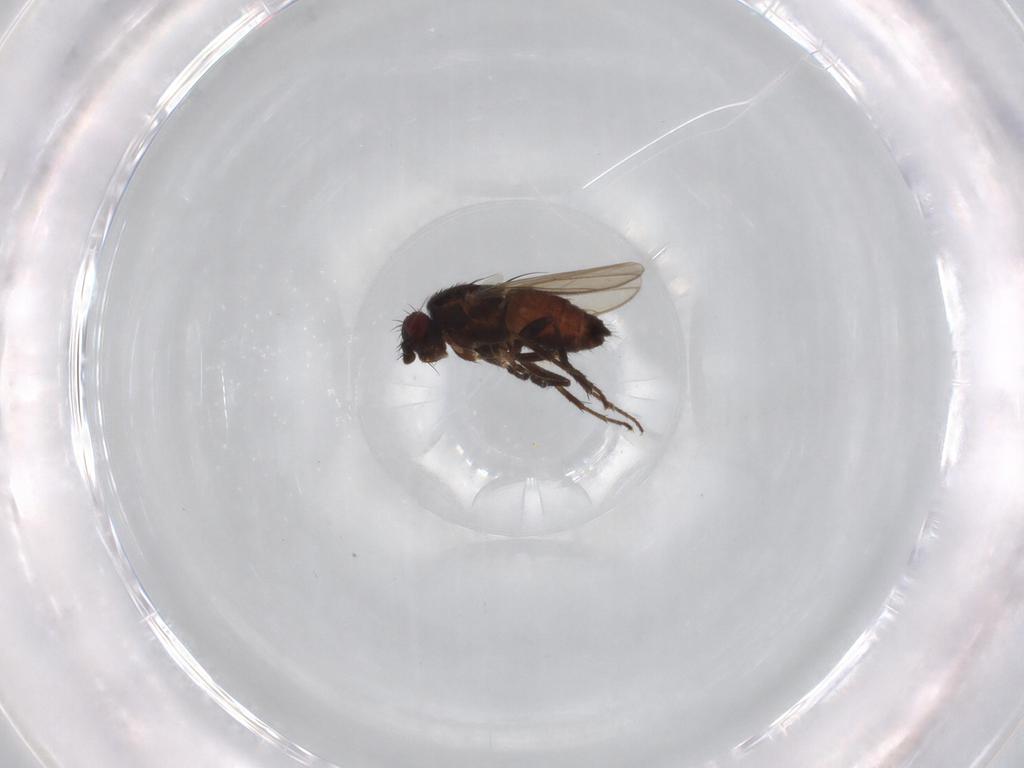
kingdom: Animalia
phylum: Arthropoda
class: Insecta
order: Diptera
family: Sphaeroceridae
